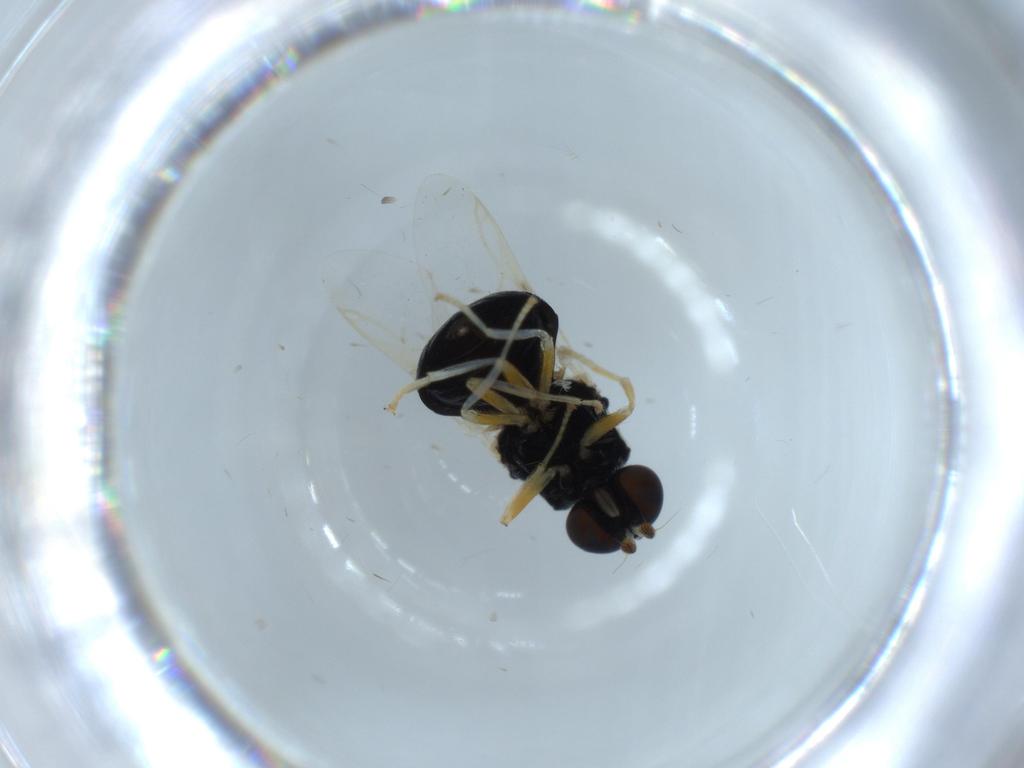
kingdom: Animalia
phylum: Arthropoda
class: Insecta
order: Diptera
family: Stratiomyidae
